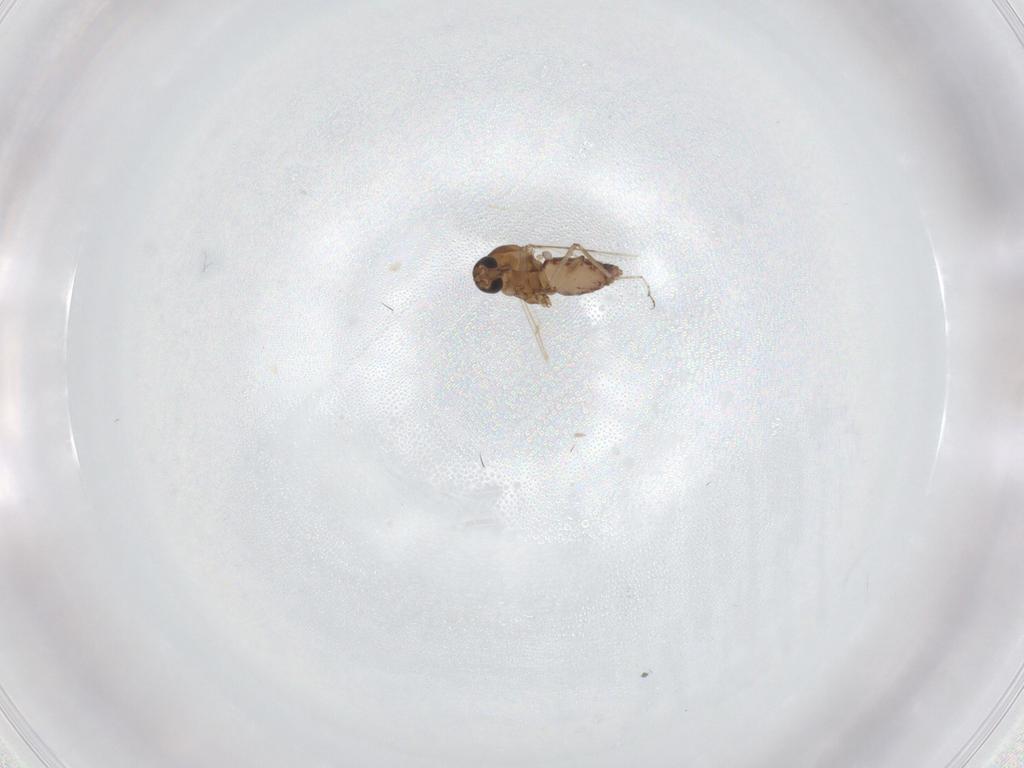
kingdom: Animalia
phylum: Arthropoda
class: Insecta
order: Diptera
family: Ceratopogonidae
